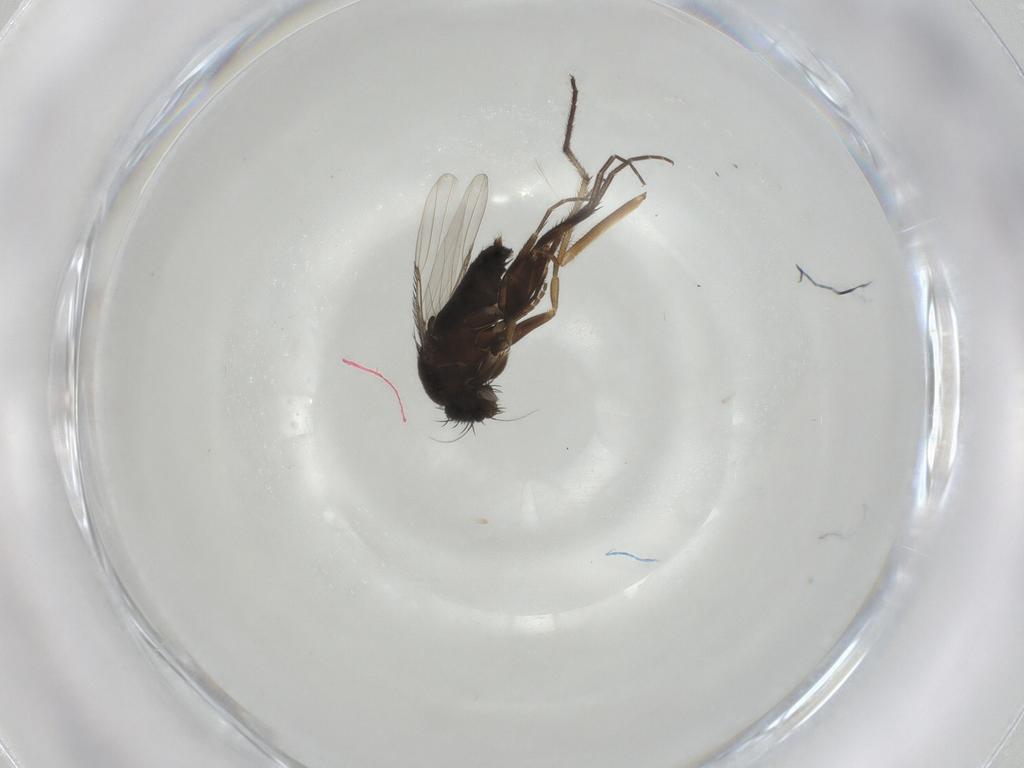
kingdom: Animalia
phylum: Arthropoda
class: Insecta
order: Diptera
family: Phoridae
